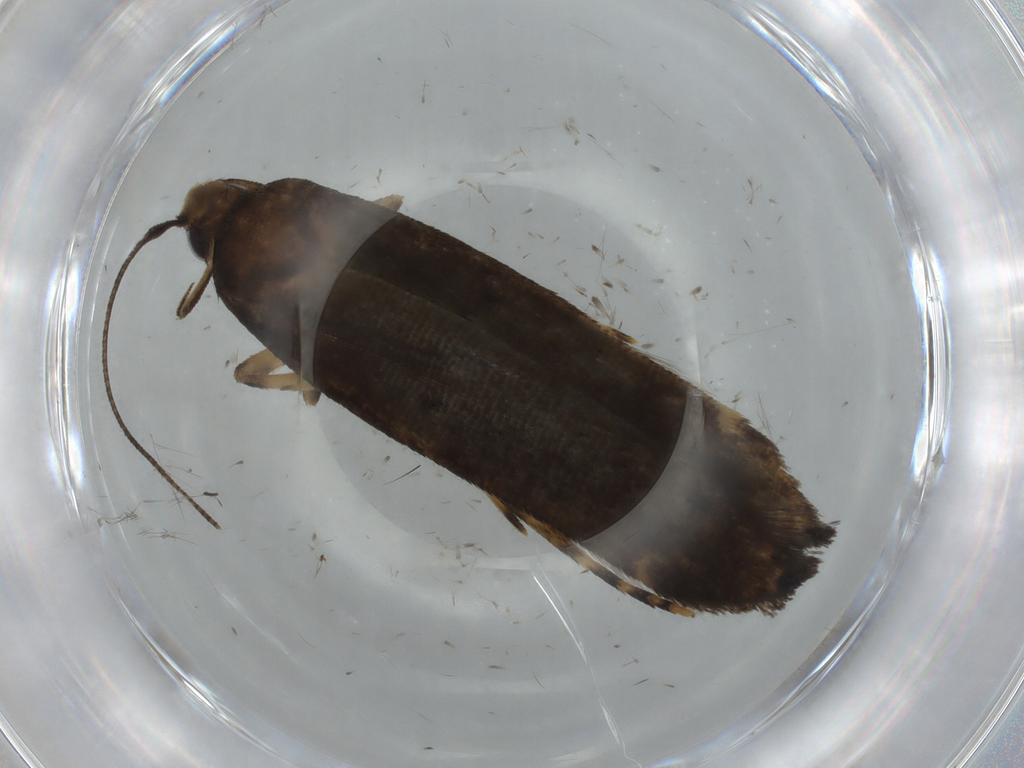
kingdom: Animalia
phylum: Arthropoda
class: Insecta
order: Lepidoptera
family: Autostichidae
